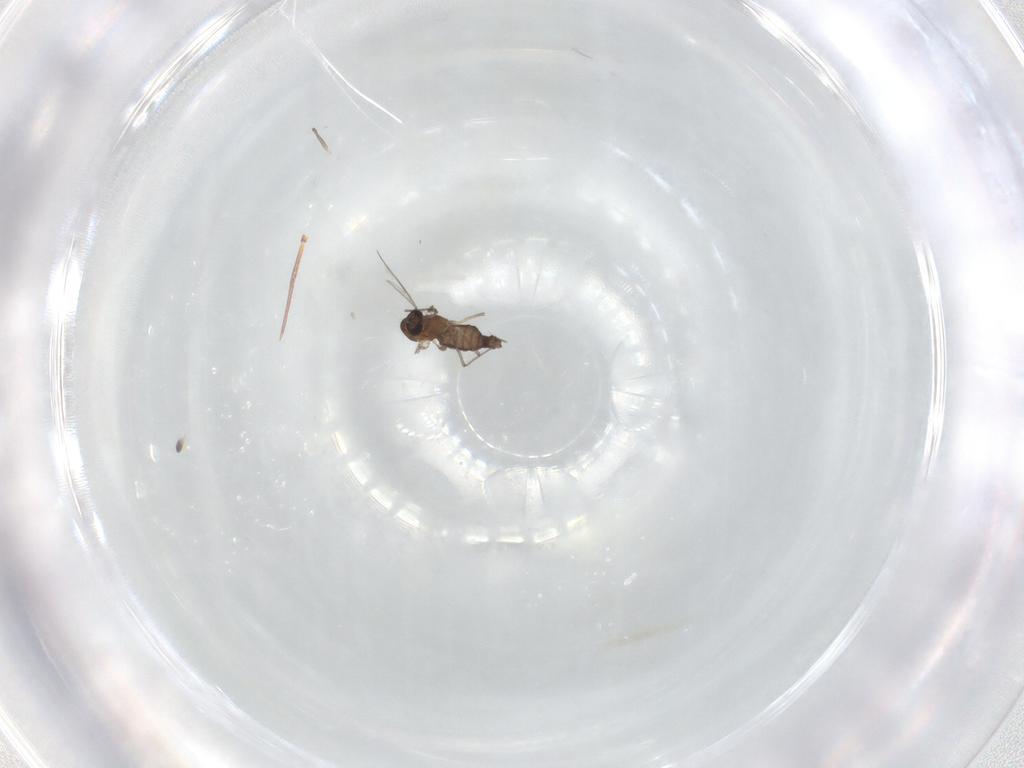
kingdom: Animalia
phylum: Arthropoda
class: Insecta
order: Diptera
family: Chironomidae
